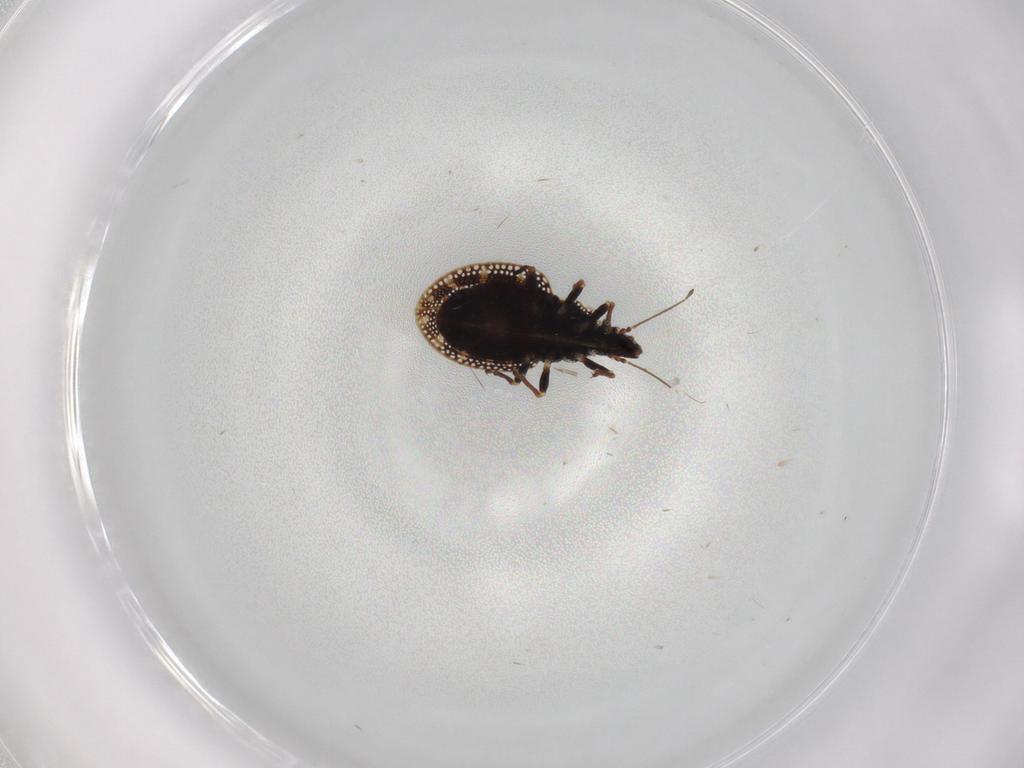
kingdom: Animalia
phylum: Arthropoda
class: Insecta
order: Hemiptera
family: Tingidae
